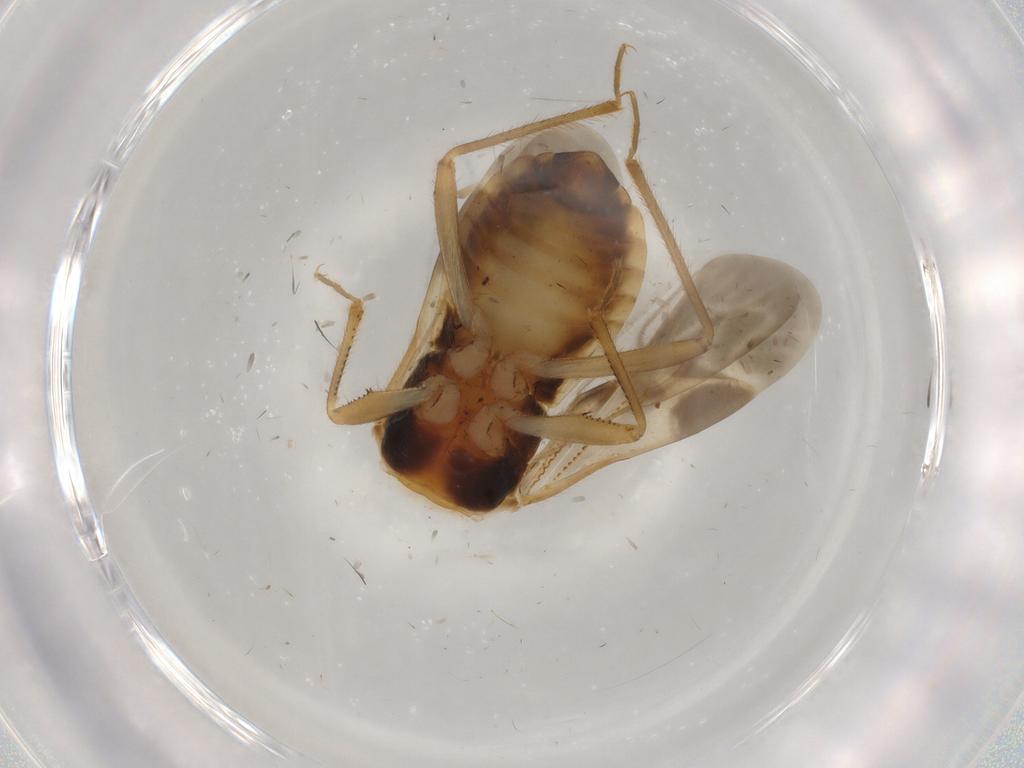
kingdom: Animalia
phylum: Arthropoda
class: Insecta
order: Hemiptera
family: Nabidae
